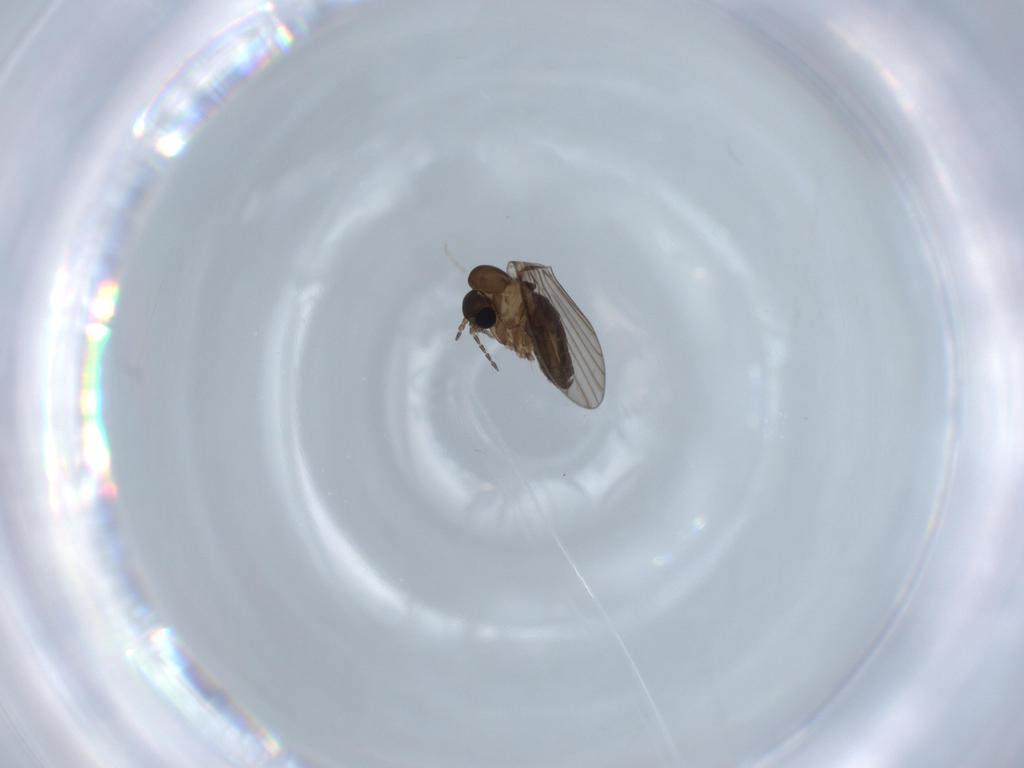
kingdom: Animalia
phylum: Arthropoda
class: Insecta
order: Diptera
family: Psychodidae
